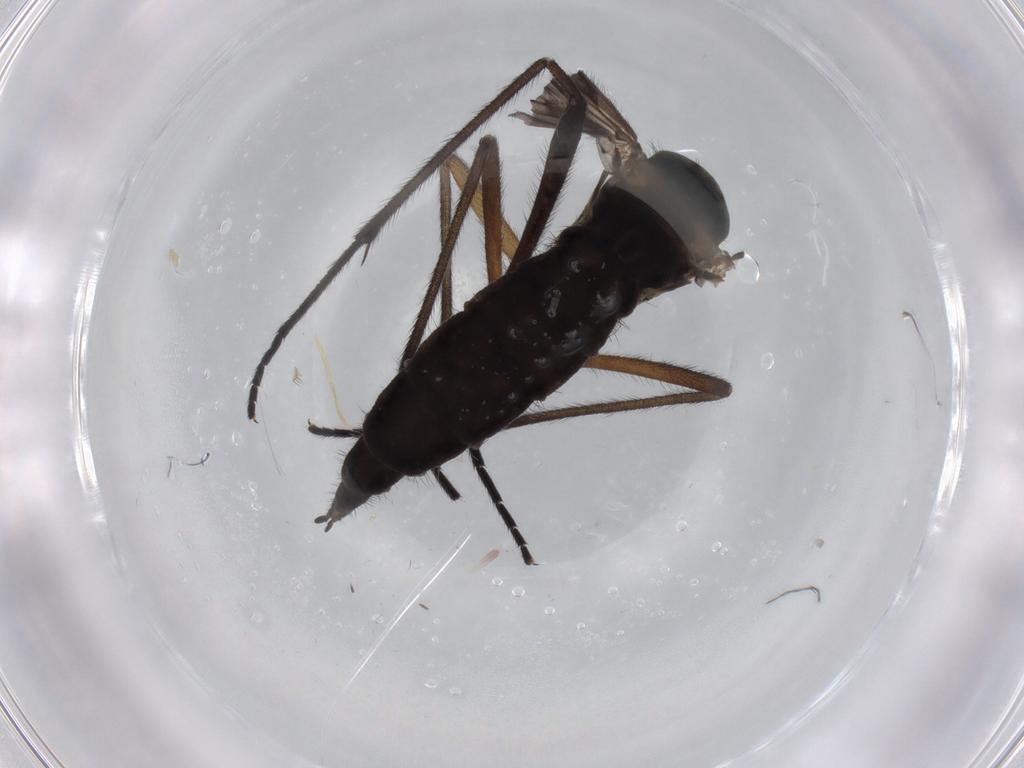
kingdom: Animalia
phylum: Arthropoda
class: Insecta
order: Diptera
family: Sciaridae
